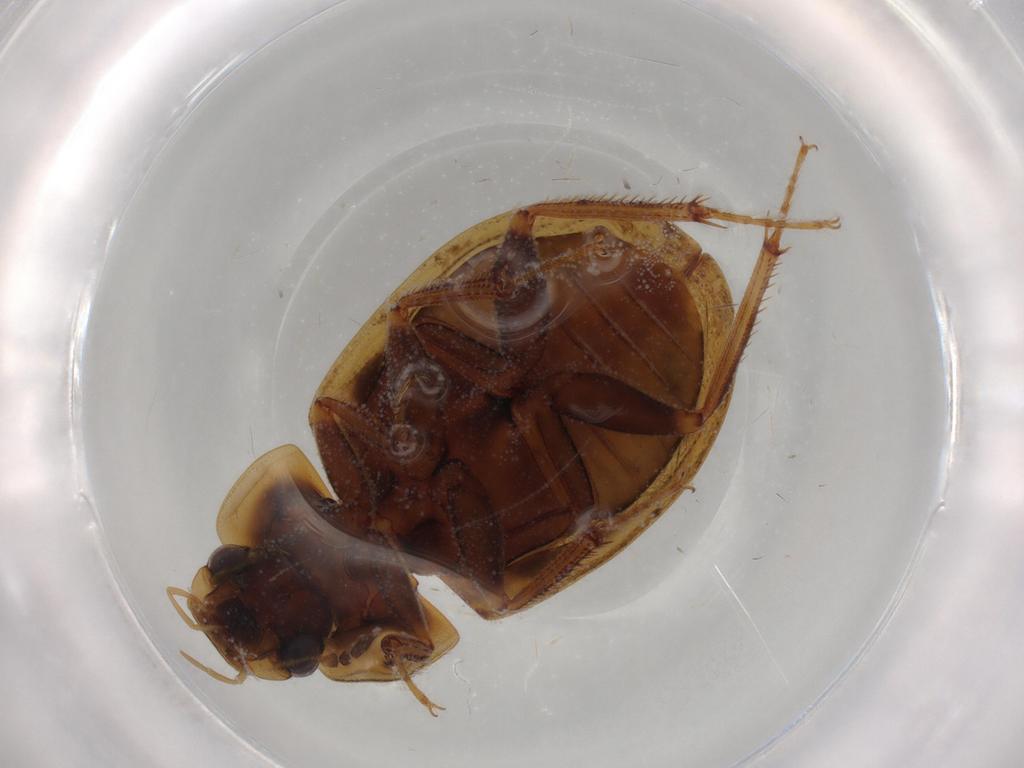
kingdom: Animalia
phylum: Arthropoda
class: Insecta
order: Coleoptera
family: Hydrophilidae
